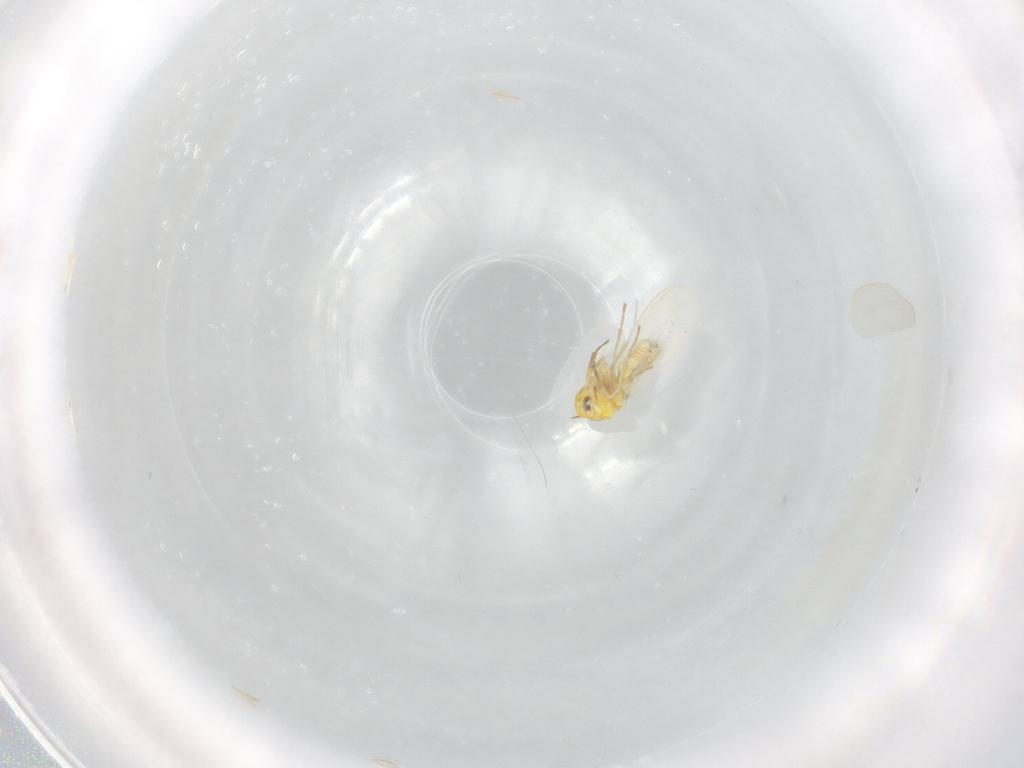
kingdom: Animalia
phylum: Arthropoda
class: Insecta
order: Hemiptera
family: Aleyrodidae
